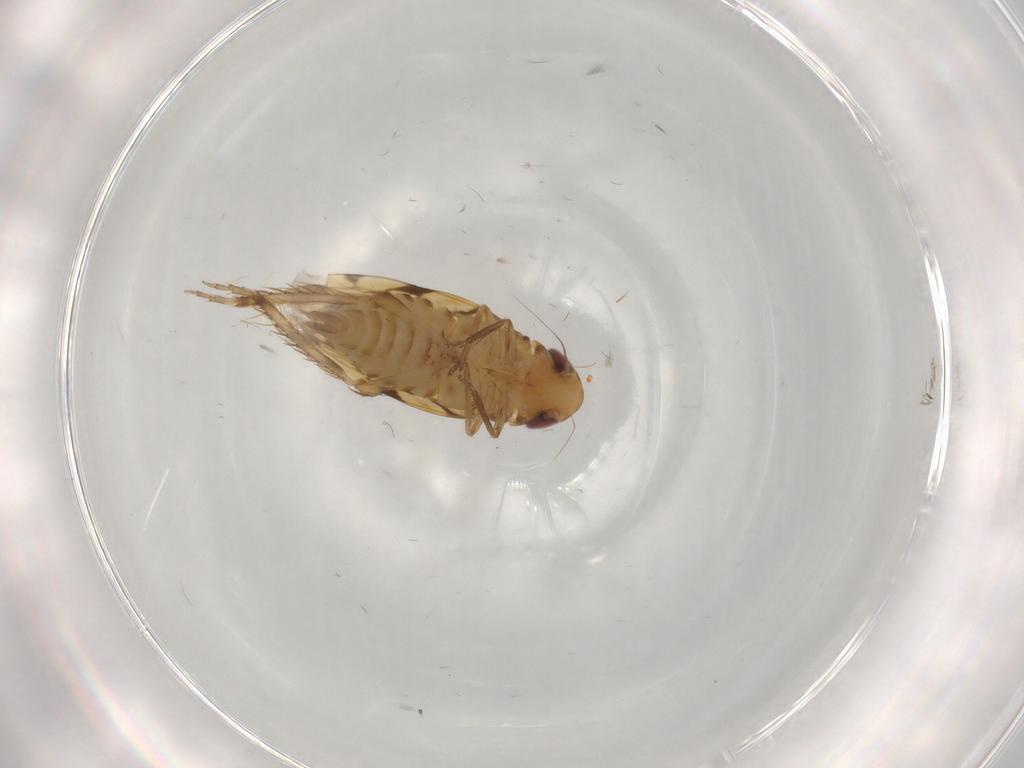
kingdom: Animalia
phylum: Arthropoda
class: Insecta
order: Hemiptera
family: Cicadellidae
